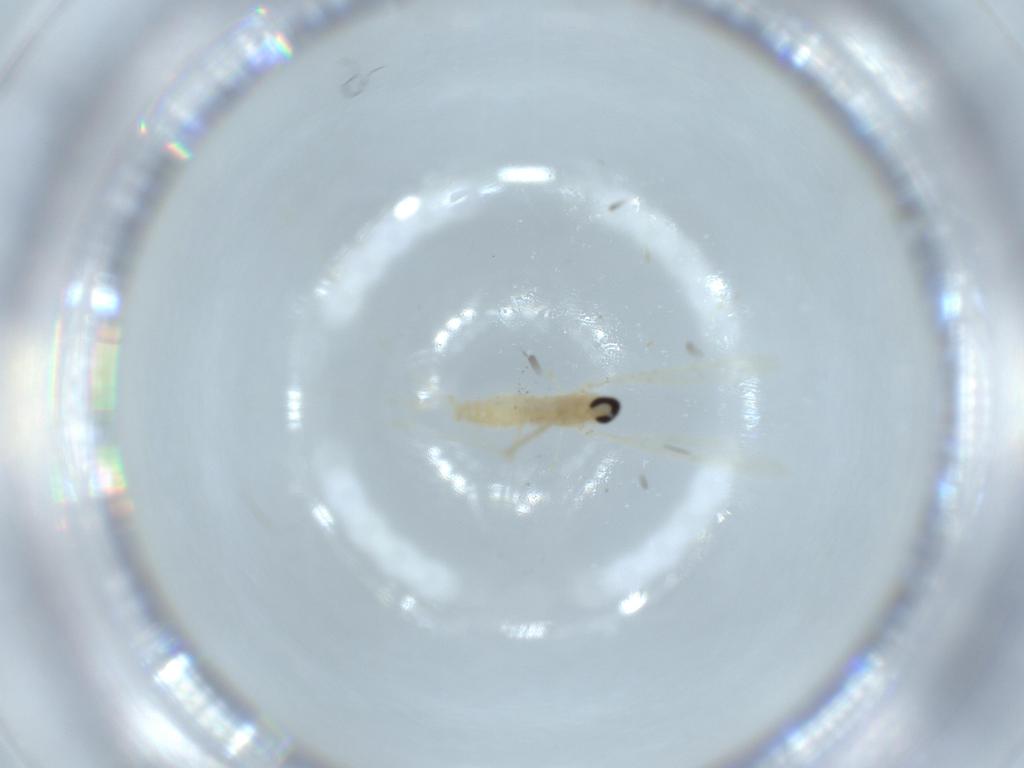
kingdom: Animalia
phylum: Arthropoda
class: Insecta
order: Diptera
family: Cecidomyiidae
